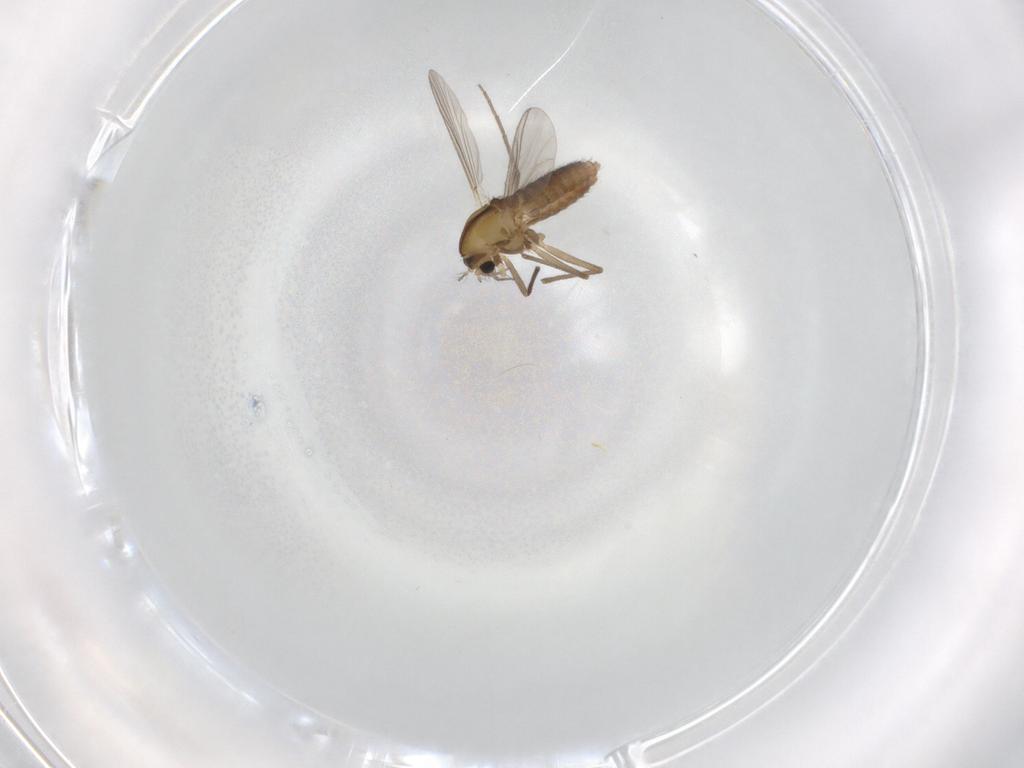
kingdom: Animalia
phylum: Arthropoda
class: Insecta
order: Diptera
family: Chironomidae
